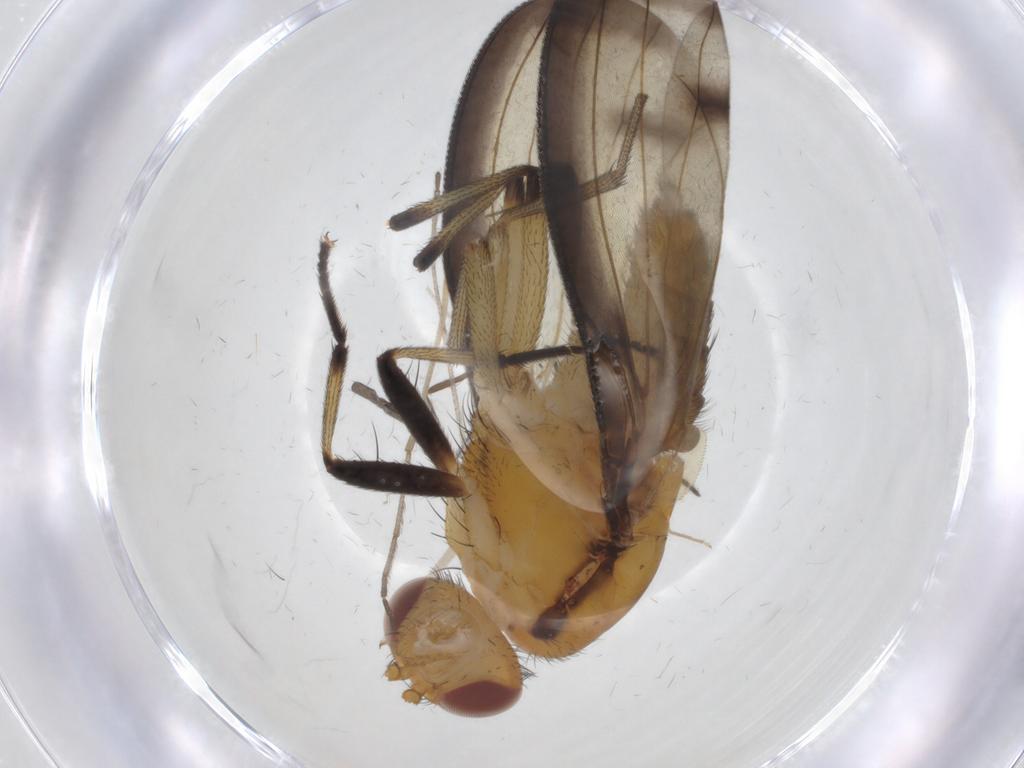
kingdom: Animalia
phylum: Arthropoda
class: Insecta
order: Diptera
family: Heleomyzidae
